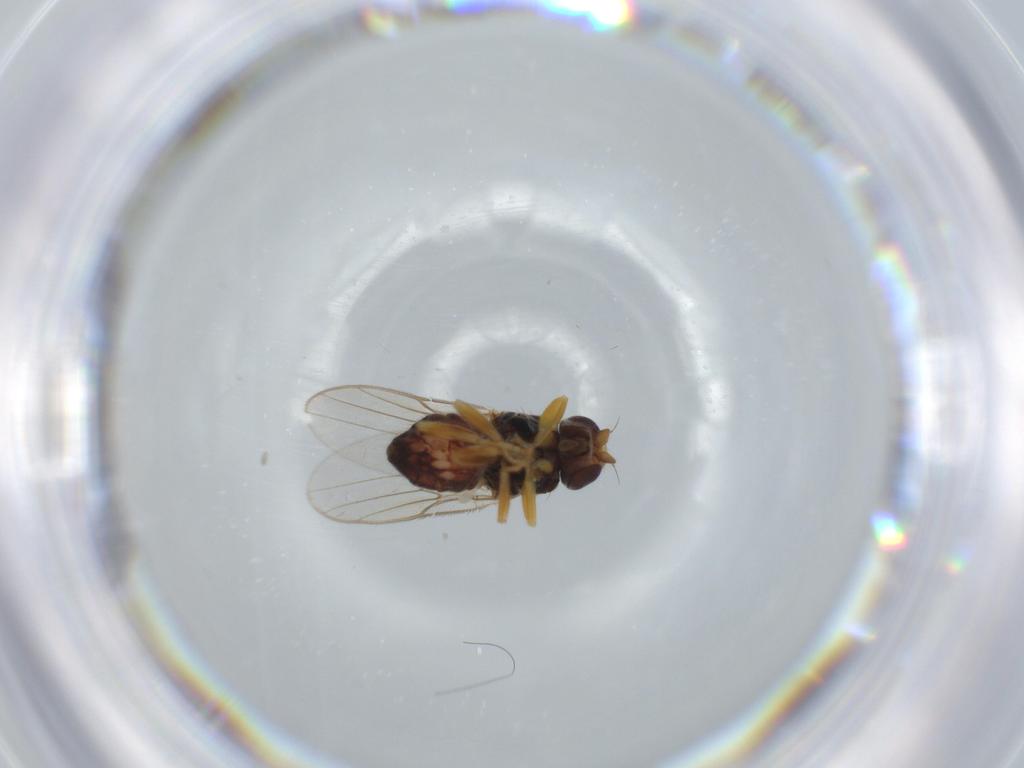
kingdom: Animalia
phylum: Arthropoda
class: Insecta
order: Diptera
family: Chloropidae
